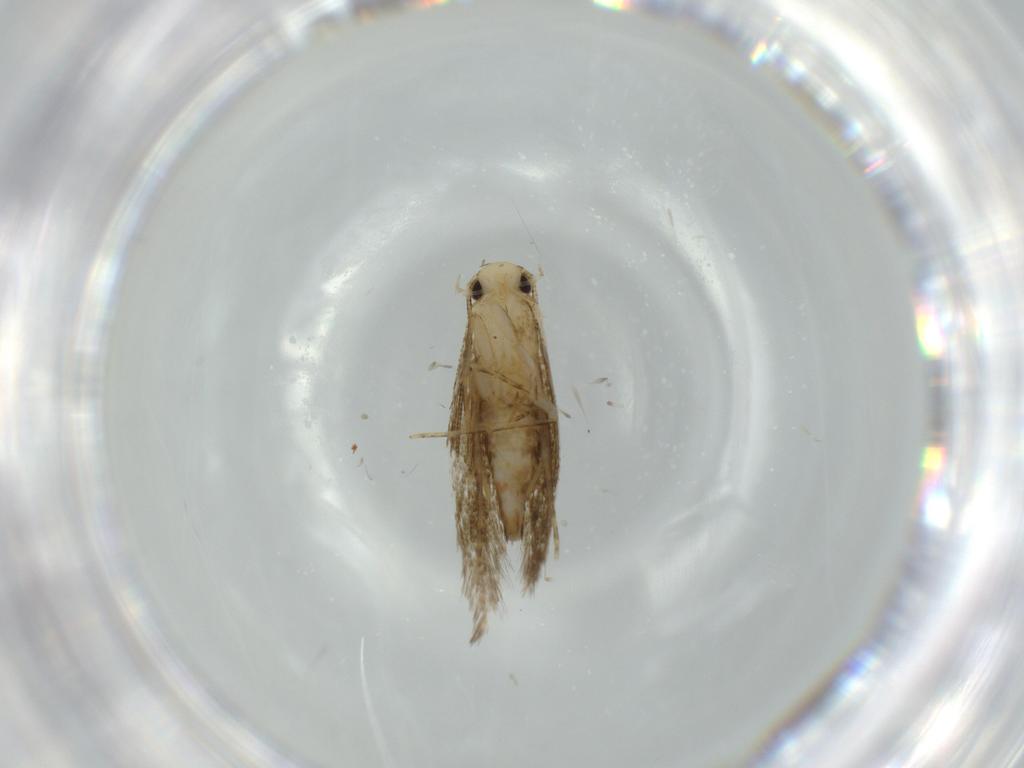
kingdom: Animalia
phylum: Arthropoda
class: Insecta
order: Lepidoptera
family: Tineidae
